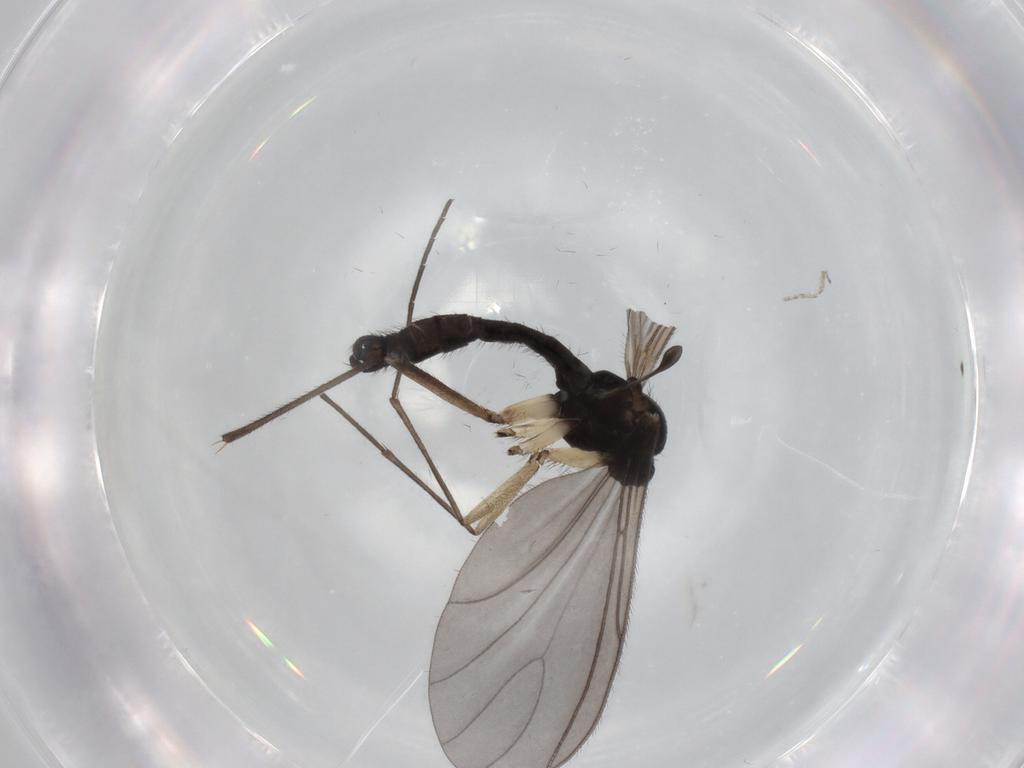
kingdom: Animalia
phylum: Arthropoda
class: Insecta
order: Diptera
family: Sciaridae
